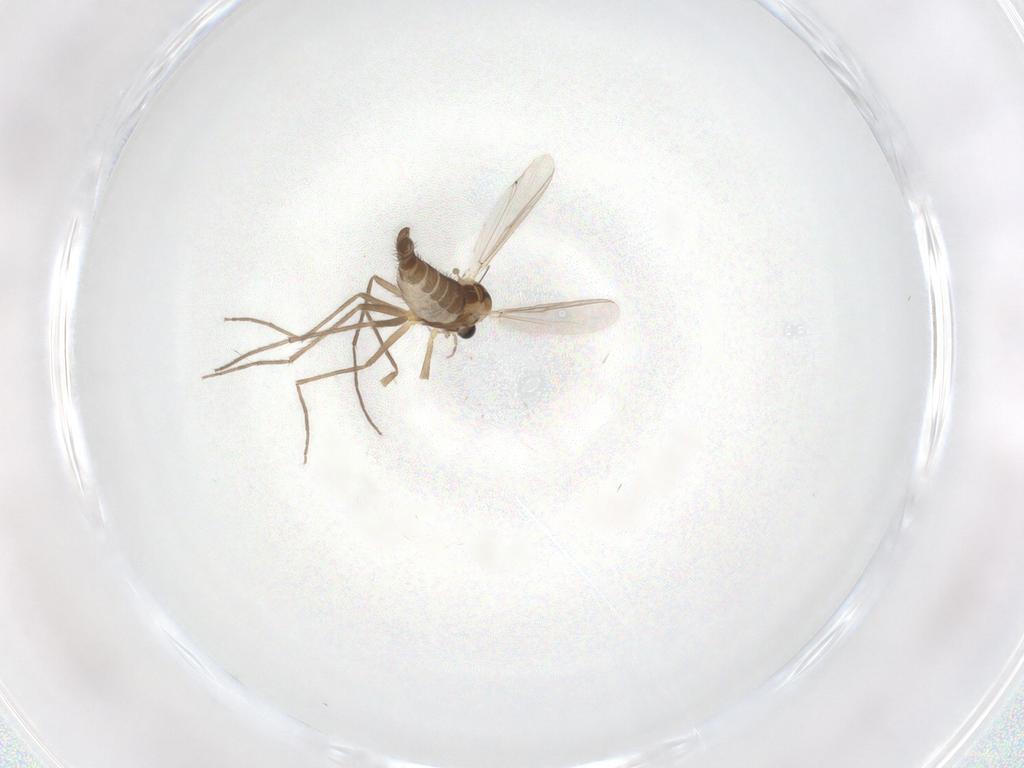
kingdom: Animalia
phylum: Arthropoda
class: Insecta
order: Diptera
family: Chironomidae
